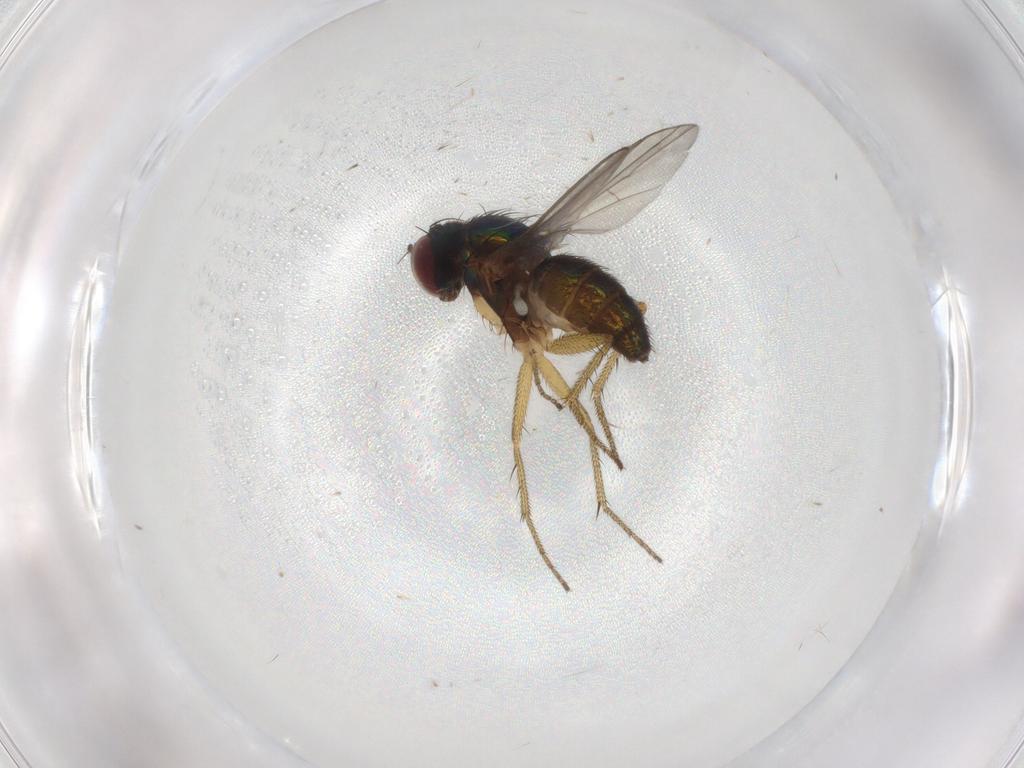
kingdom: Animalia
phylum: Arthropoda
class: Insecta
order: Diptera
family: Dolichopodidae
